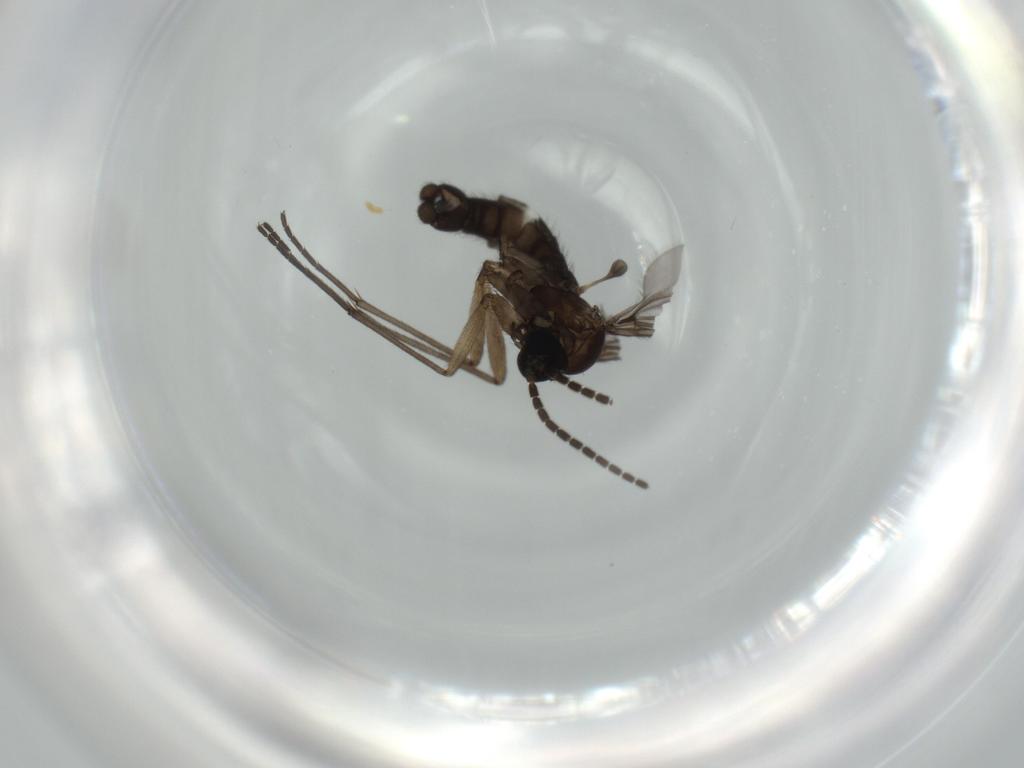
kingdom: Animalia
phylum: Arthropoda
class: Insecta
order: Diptera
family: Sciaridae
